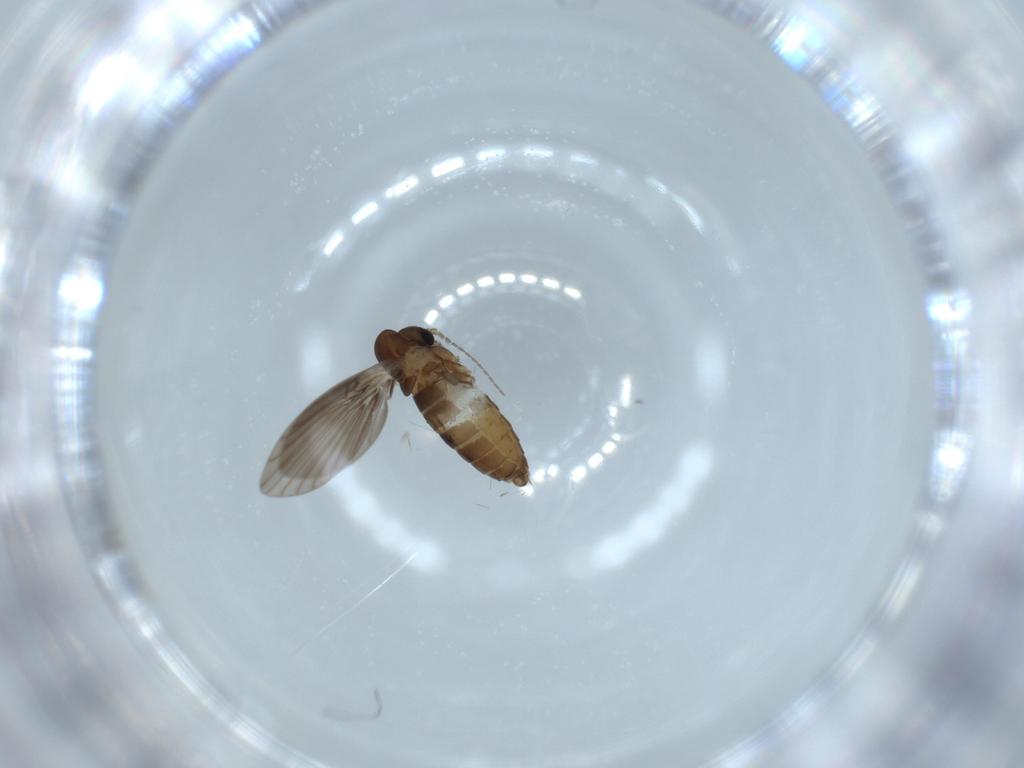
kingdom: Animalia
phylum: Arthropoda
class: Insecta
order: Diptera
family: Psychodidae
